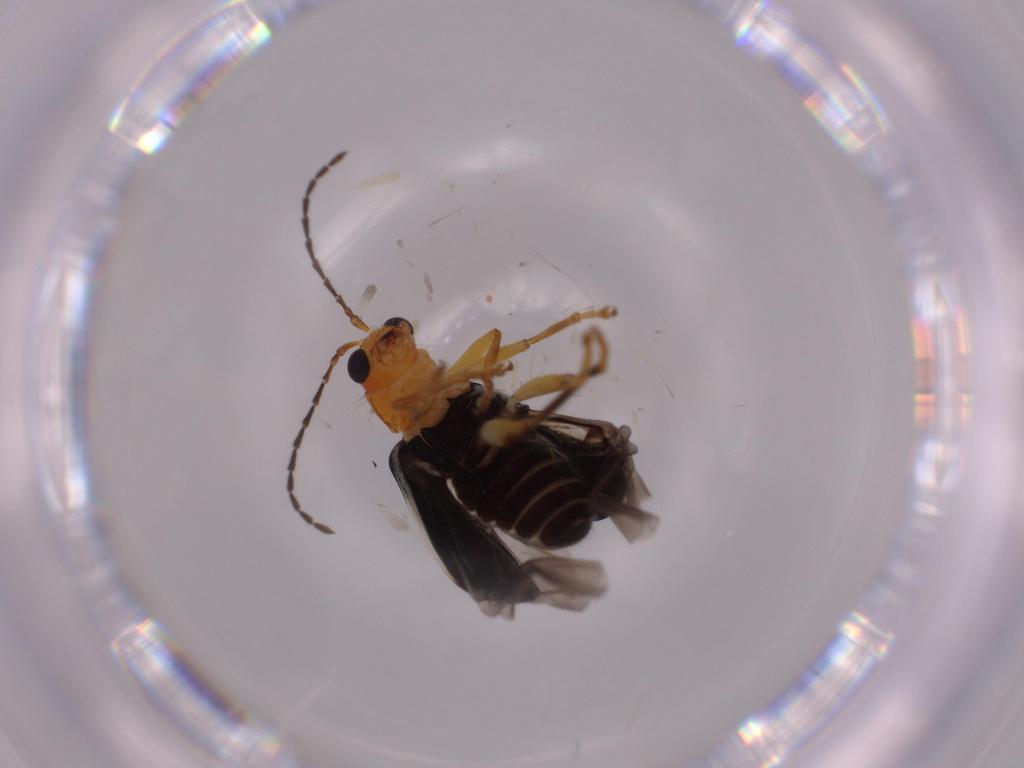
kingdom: Animalia
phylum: Arthropoda
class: Insecta
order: Coleoptera
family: Chrysomelidae
